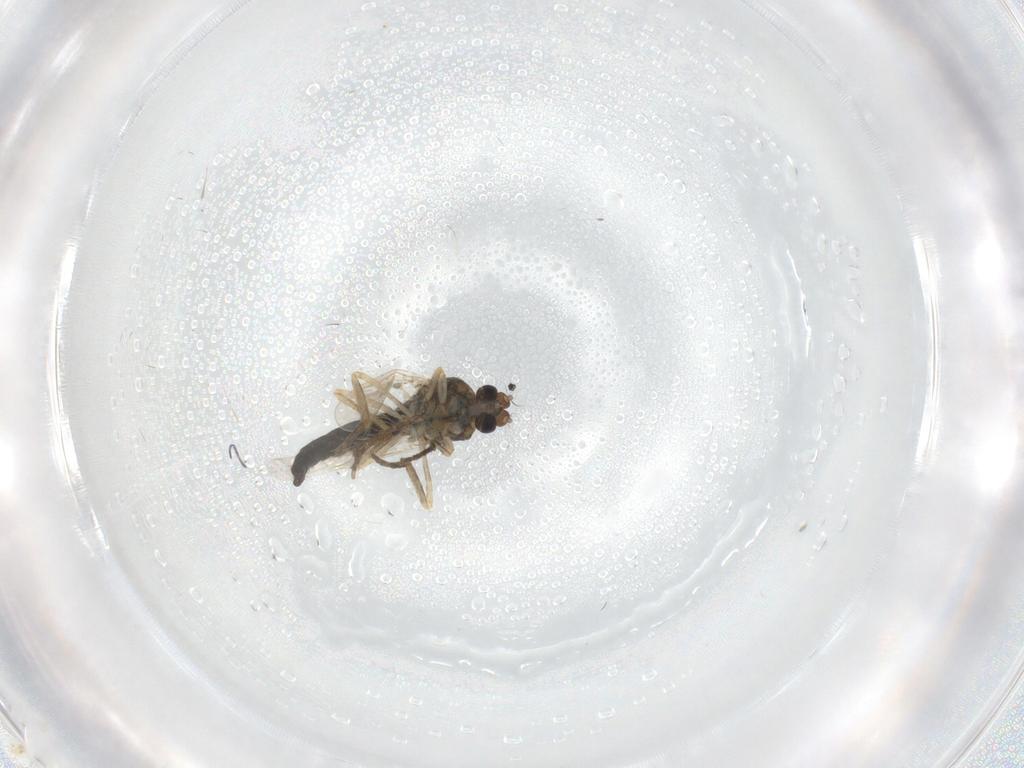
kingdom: Animalia
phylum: Arthropoda
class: Insecta
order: Diptera
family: Ceratopogonidae
